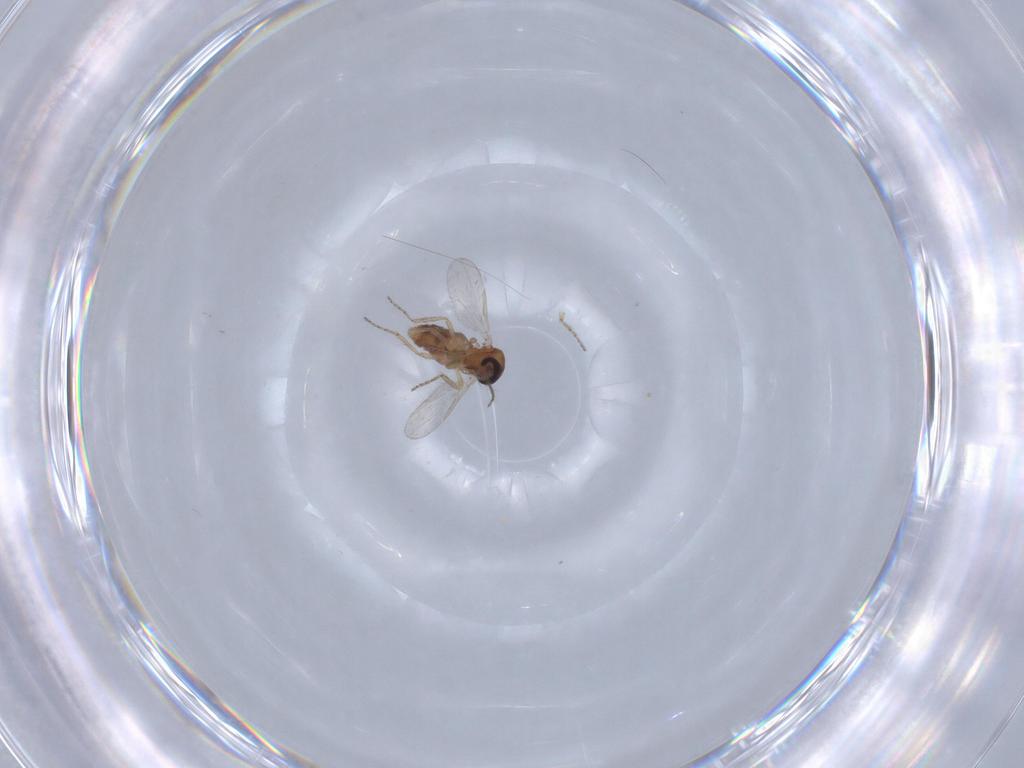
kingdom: Animalia
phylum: Arthropoda
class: Insecta
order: Diptera
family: Ceratopogonidae
